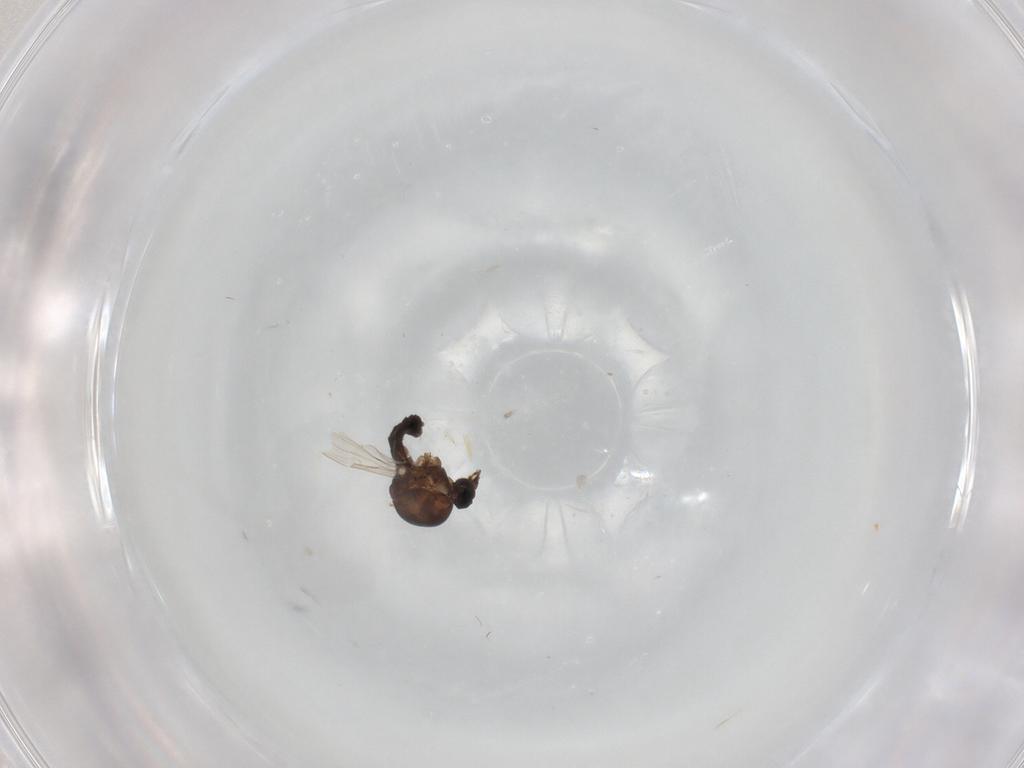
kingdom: Animalia
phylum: Arthropoda
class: Insecta
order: Diptera
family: Ceratopogonidae
